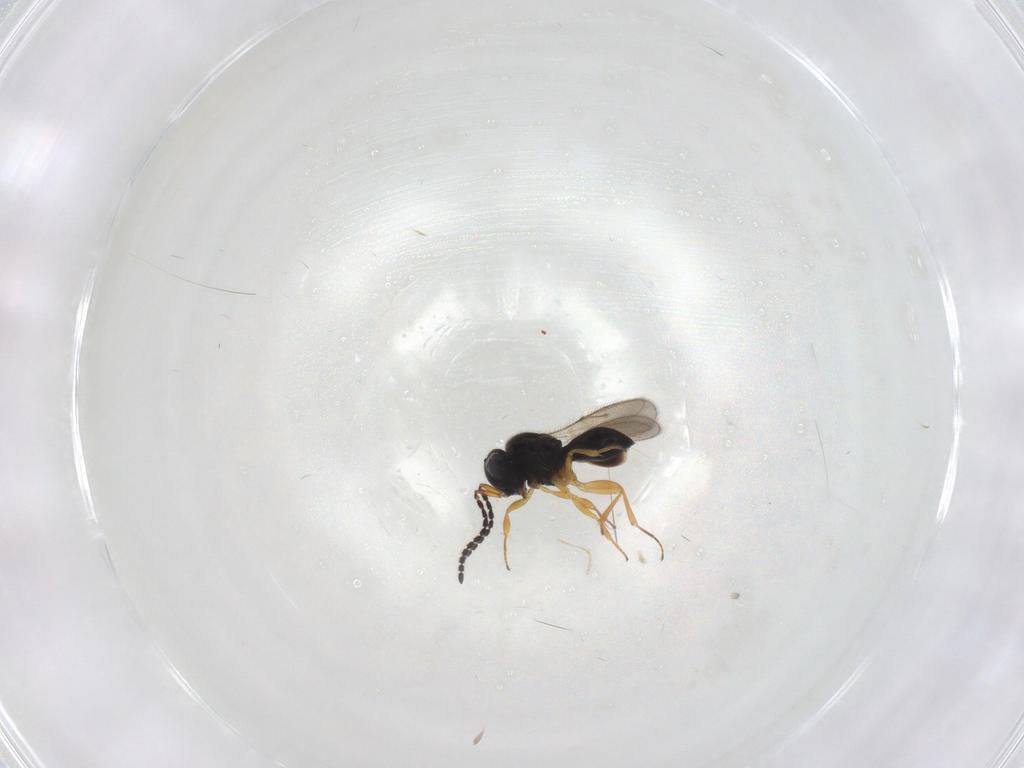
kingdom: Animalia
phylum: Arthropoda
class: Insecta
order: Hymenoptera
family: Scelionidae
